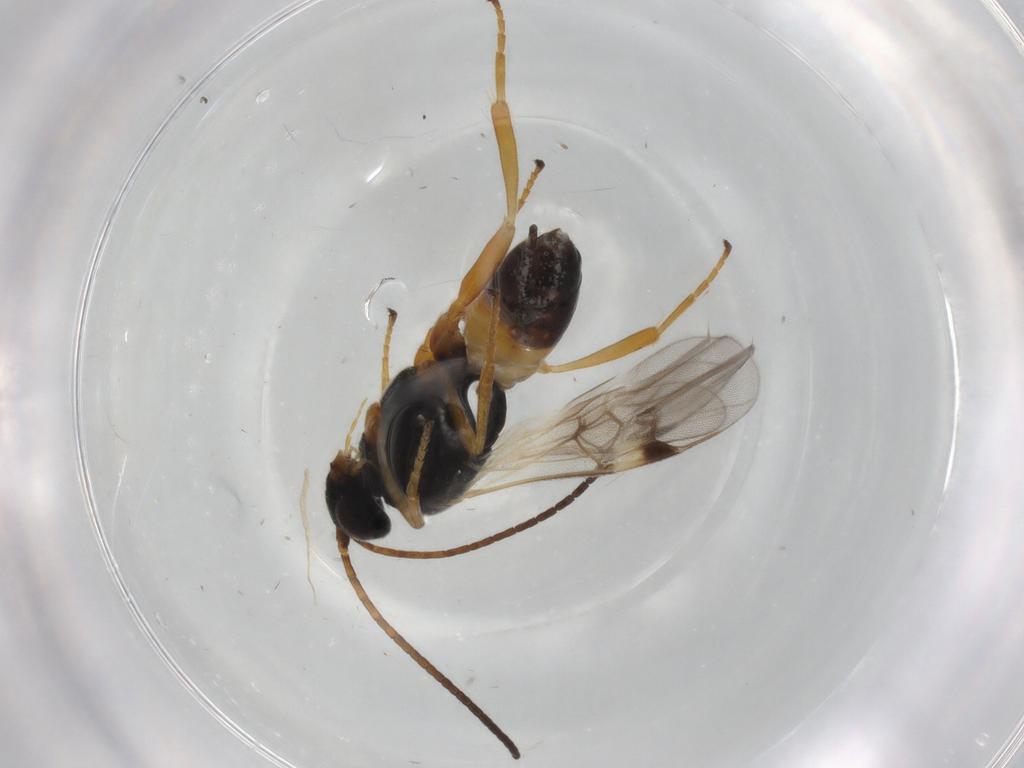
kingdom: Animalia
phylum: Arthropoda
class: Insecta
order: Hymenoptera
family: Braconidae
